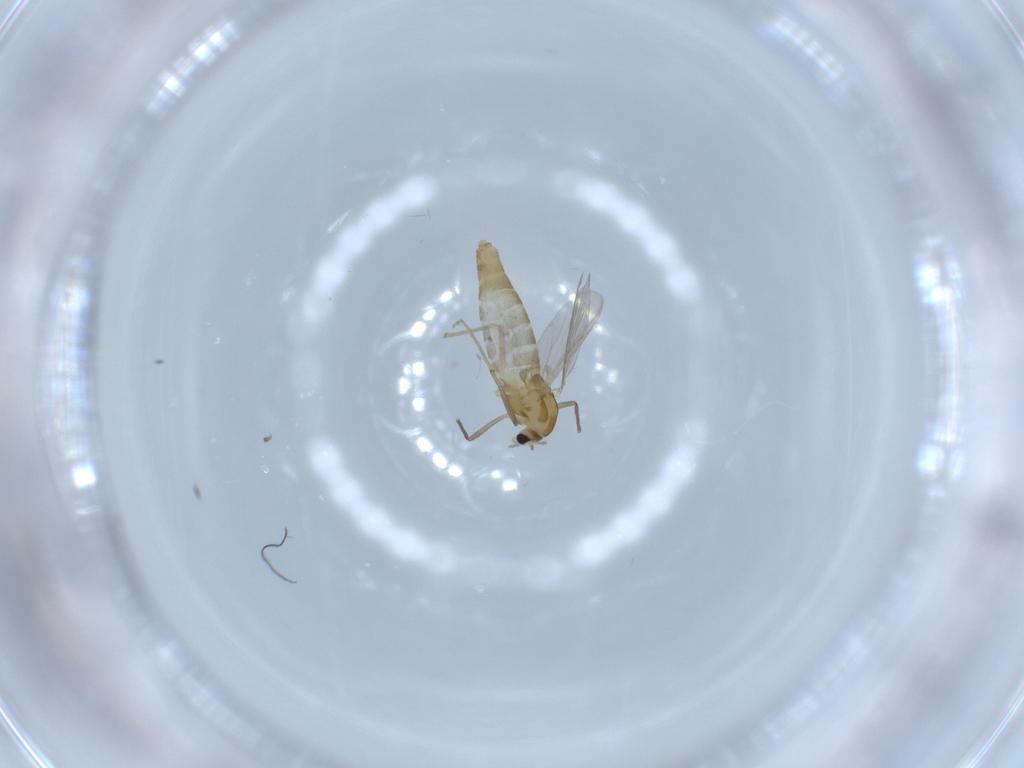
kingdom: Animalia
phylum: Arthropoda
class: Insecta
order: Diptera
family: Chironomidae
